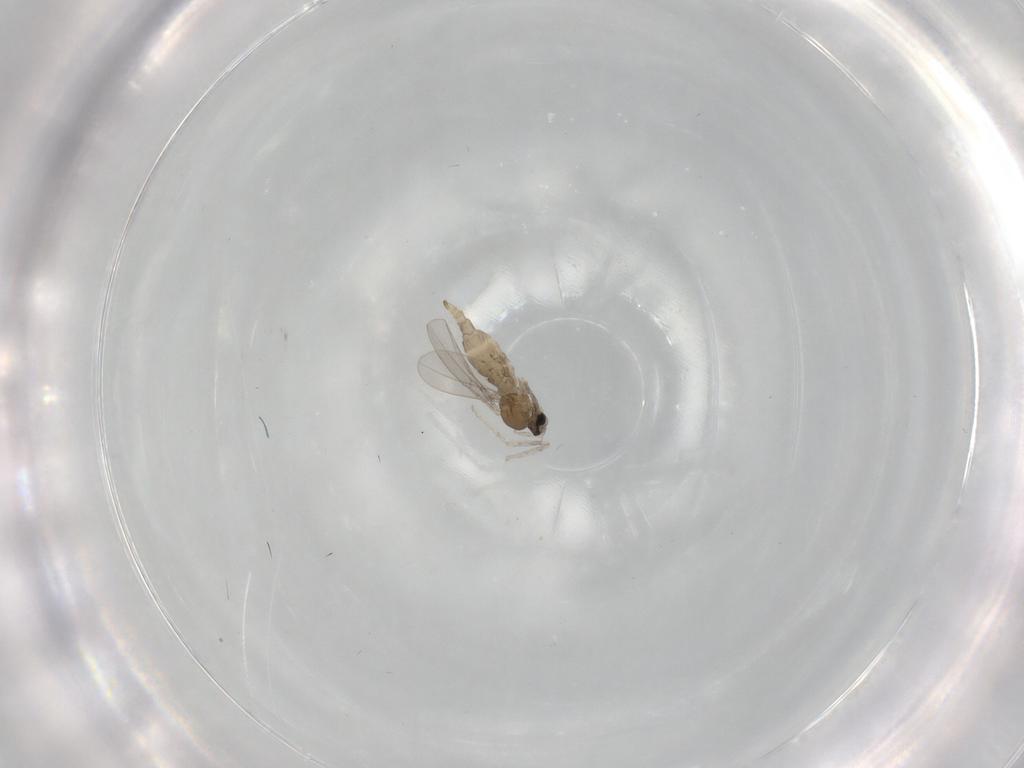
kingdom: Animalia
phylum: Arthropoda
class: Insecta
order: Diptera
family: Cecidomyiidae
